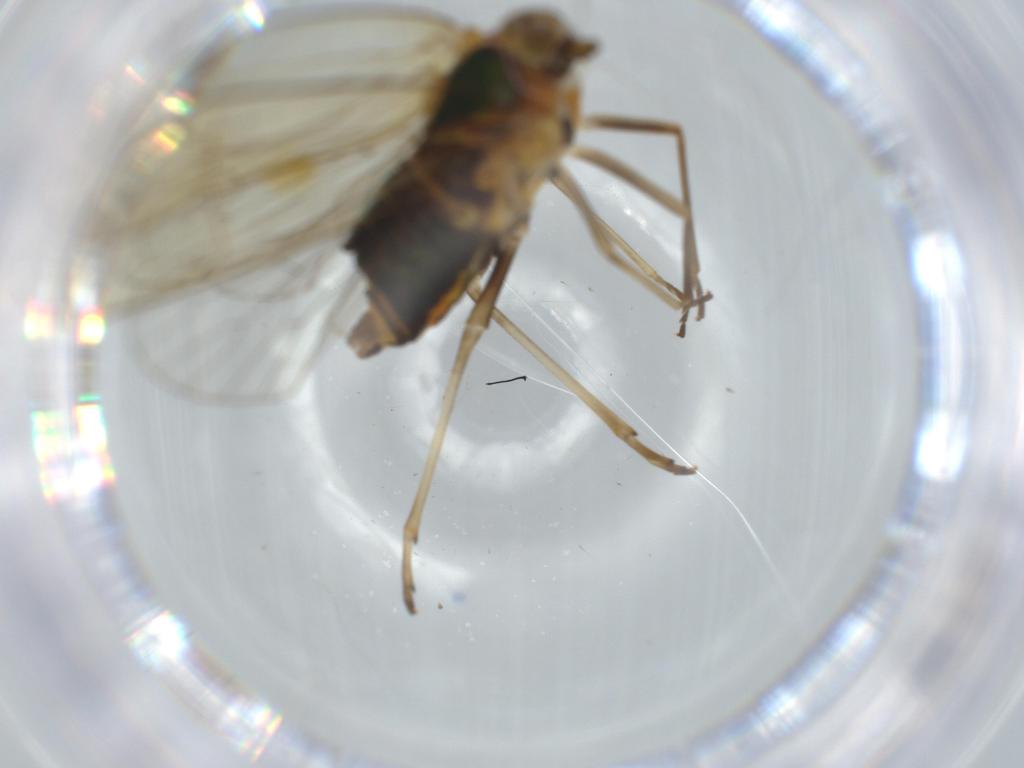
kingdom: Animalia
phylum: Arthropoda
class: Insecta
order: Hemiptera
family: Kinnaridae
